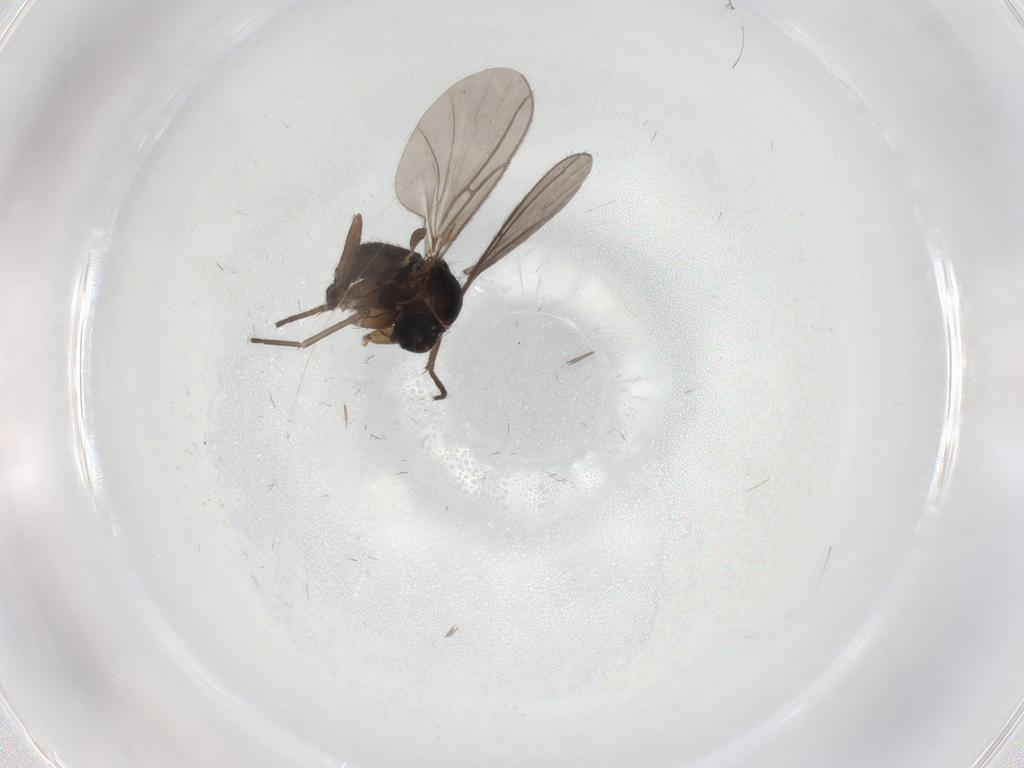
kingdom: Animalia
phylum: Arthropoda
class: Insecta
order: Diptera
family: Sciaridae
